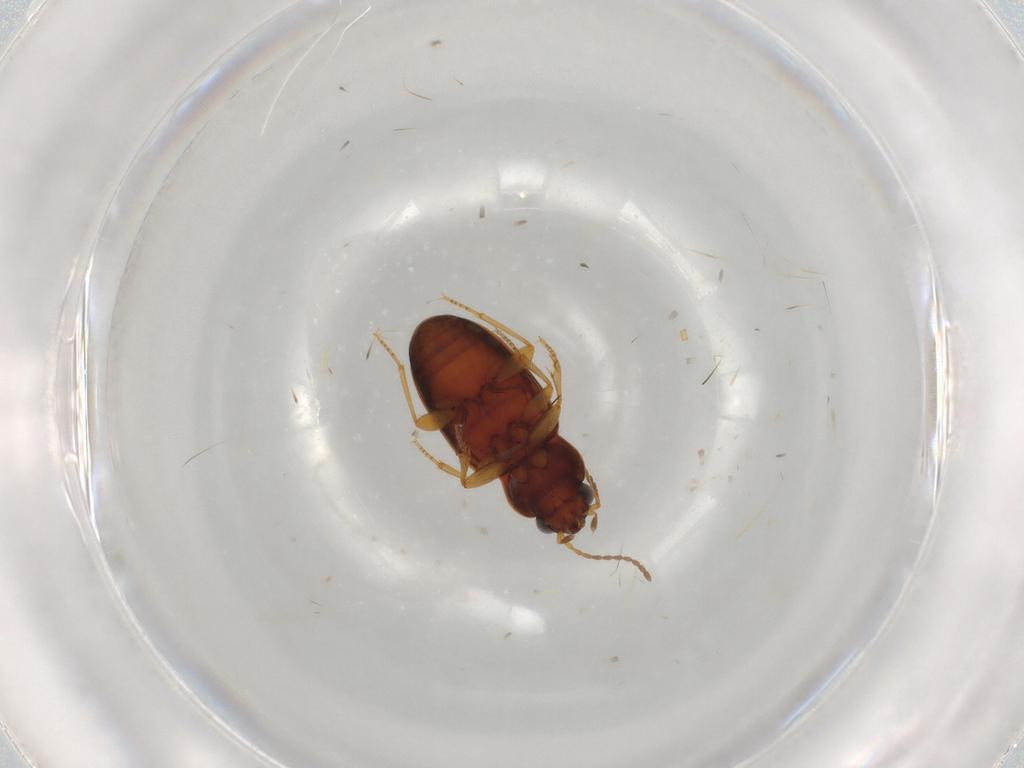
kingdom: Animalia
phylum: Arthropoda
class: Insecta
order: Coleoptera
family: Carabidae
